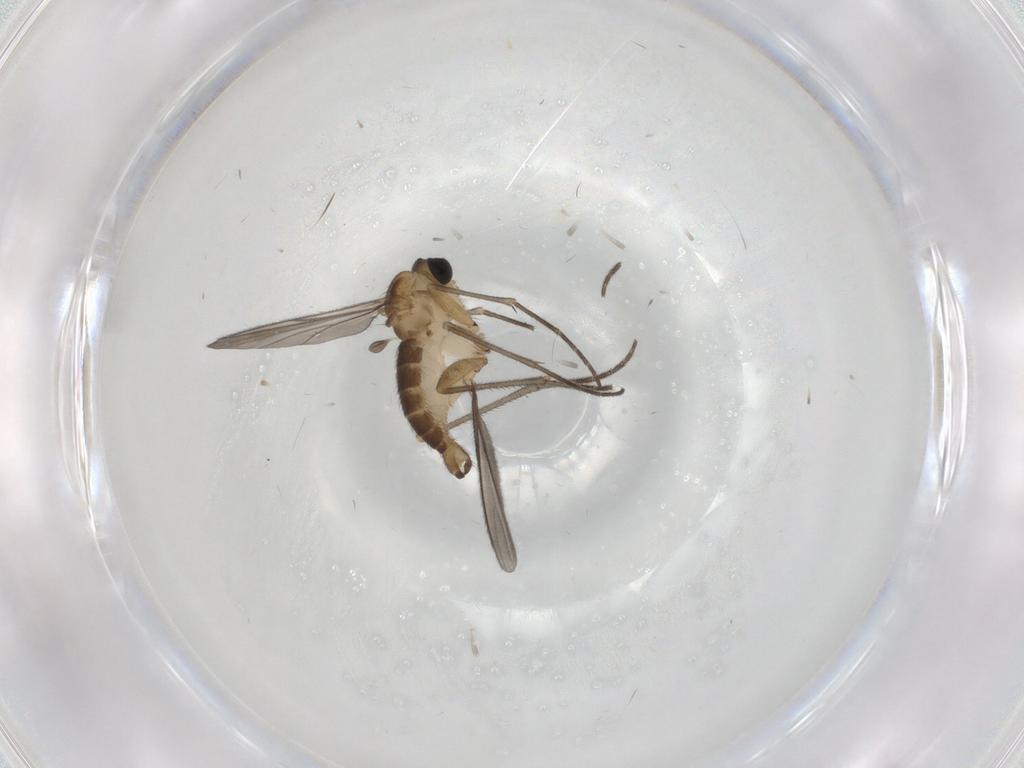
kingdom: Animalia
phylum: Arthropoda
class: Insecta
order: Diptera
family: Sciaridae
